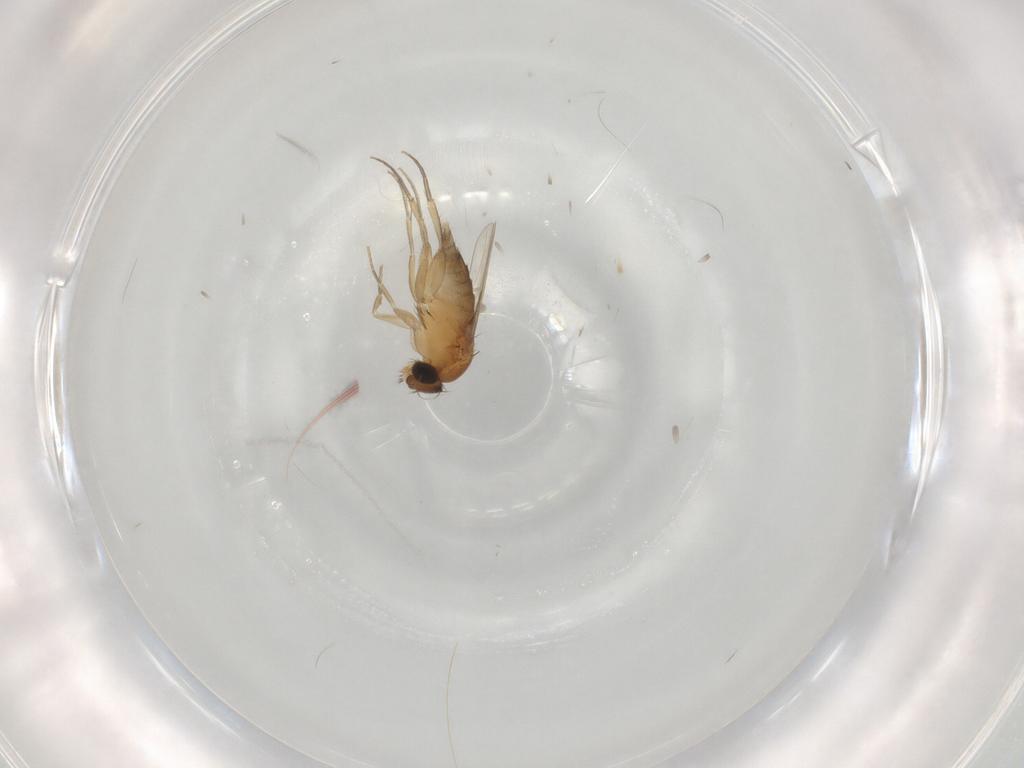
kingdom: Animalia
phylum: Arthropoda
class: Insecta
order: Diptera
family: Phoridae
